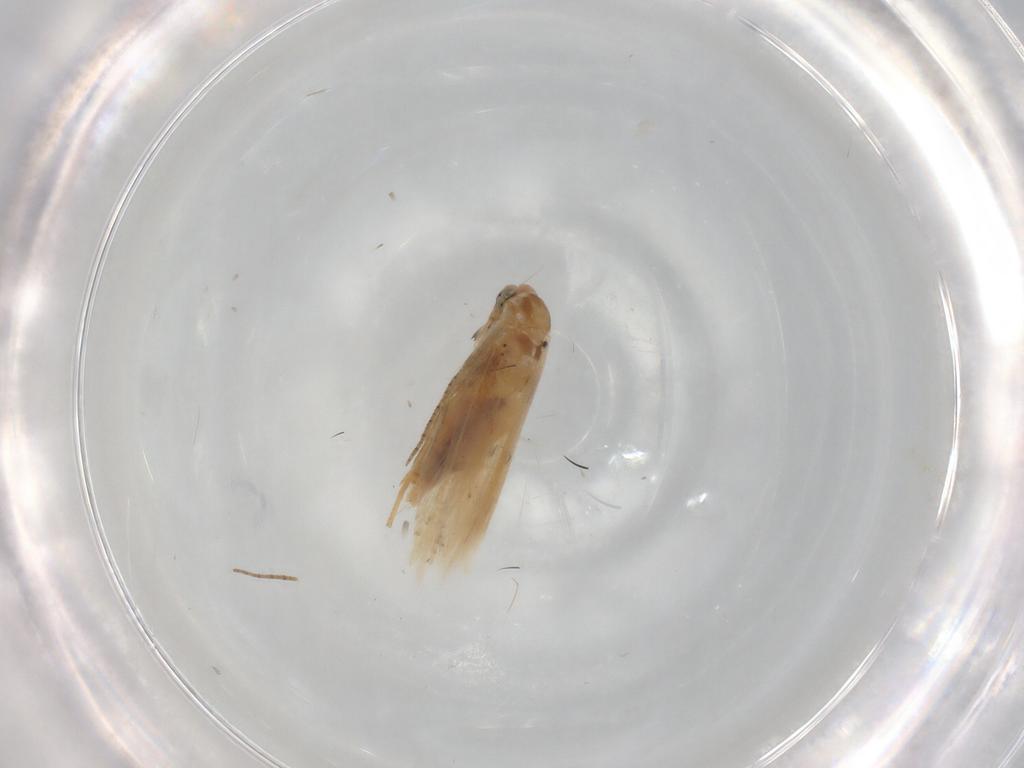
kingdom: Animalia
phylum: Arthropoda
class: Insecta
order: Lepidoptera
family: Bucculatricidae
